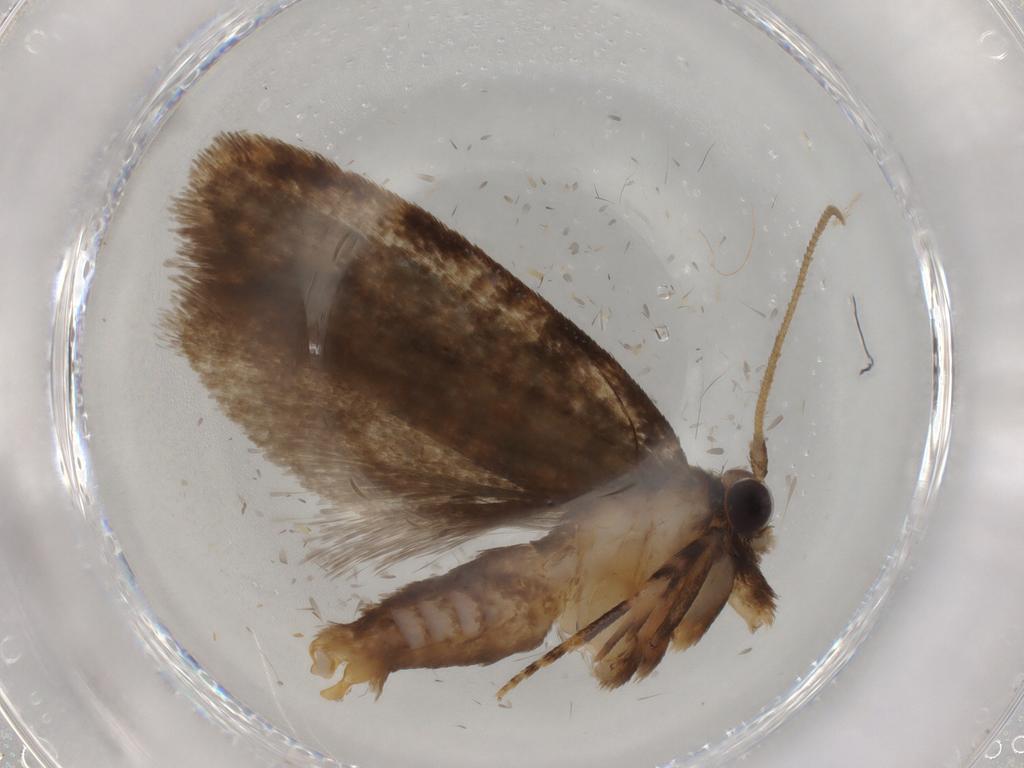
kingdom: Animalia
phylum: Arthropoda
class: Insecta
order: Lepidoptera
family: Tineidae
